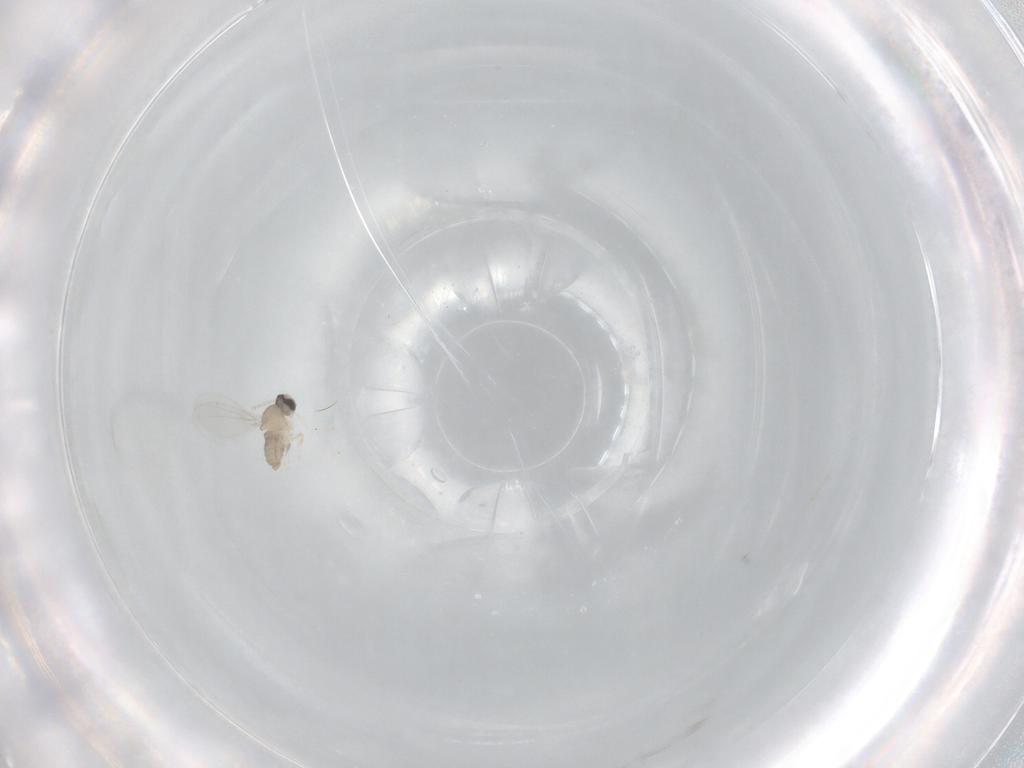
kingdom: Animalia
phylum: Arthropoda
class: Insecta
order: Diptera
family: Cecidomyiidae
